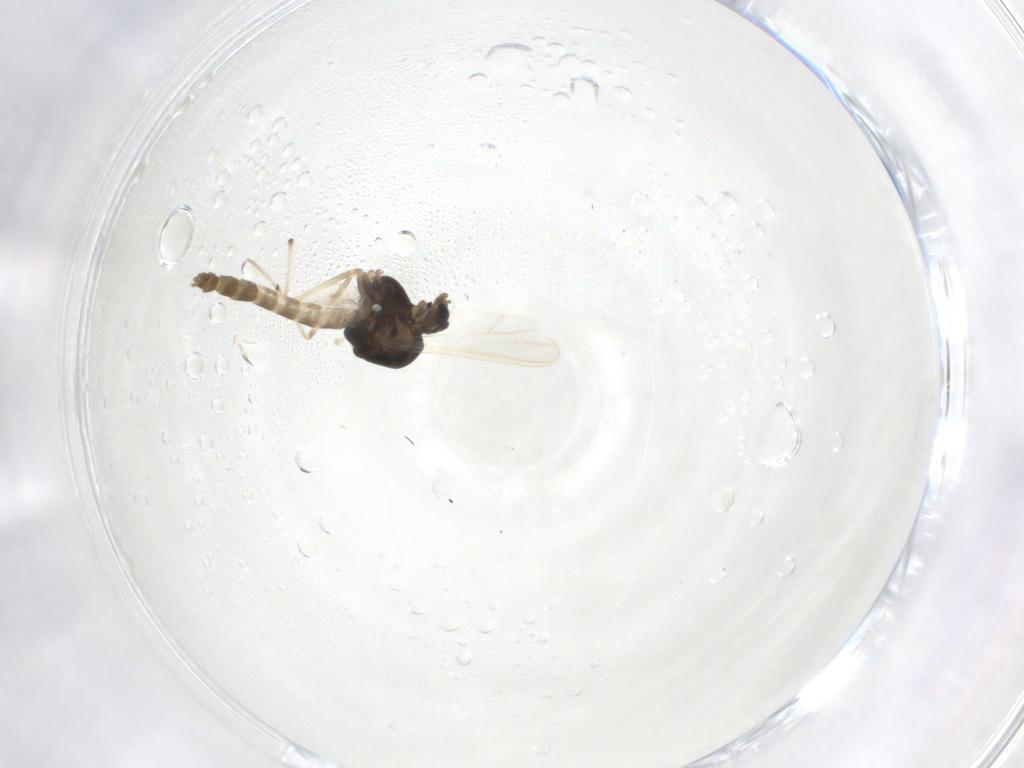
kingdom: Animalia
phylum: Arthropoda
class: Insecta
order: Diptera
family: Chironomidae
